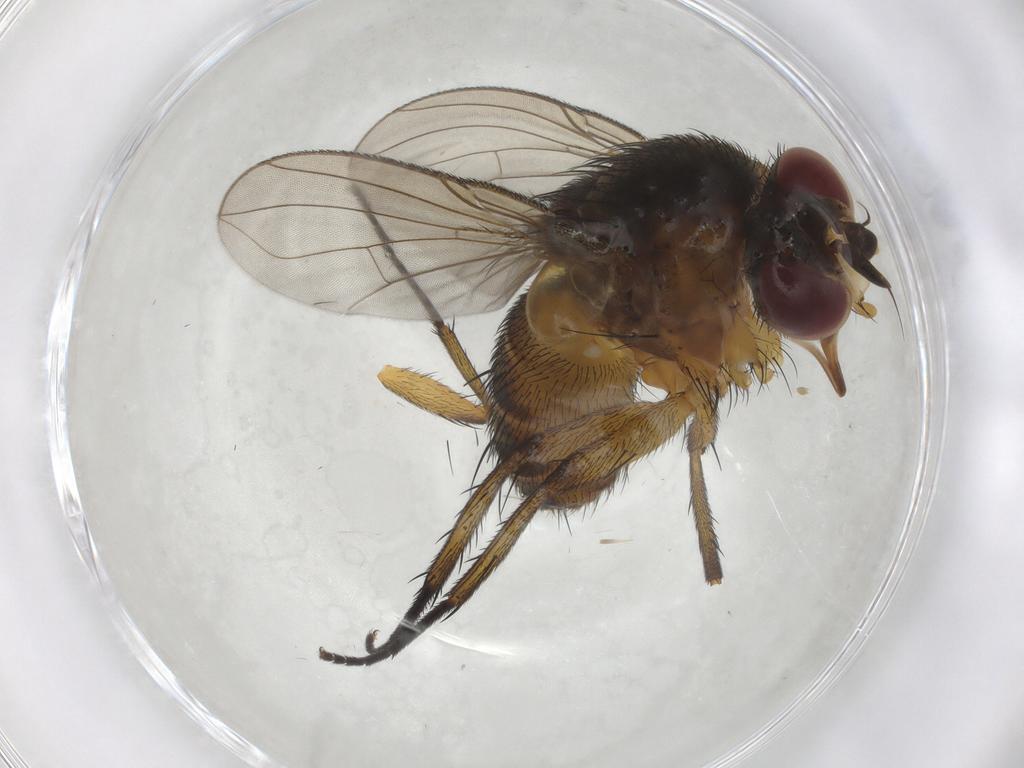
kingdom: Animalia
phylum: Arthropoda
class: Insecta
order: Diptera
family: Tachinidae
